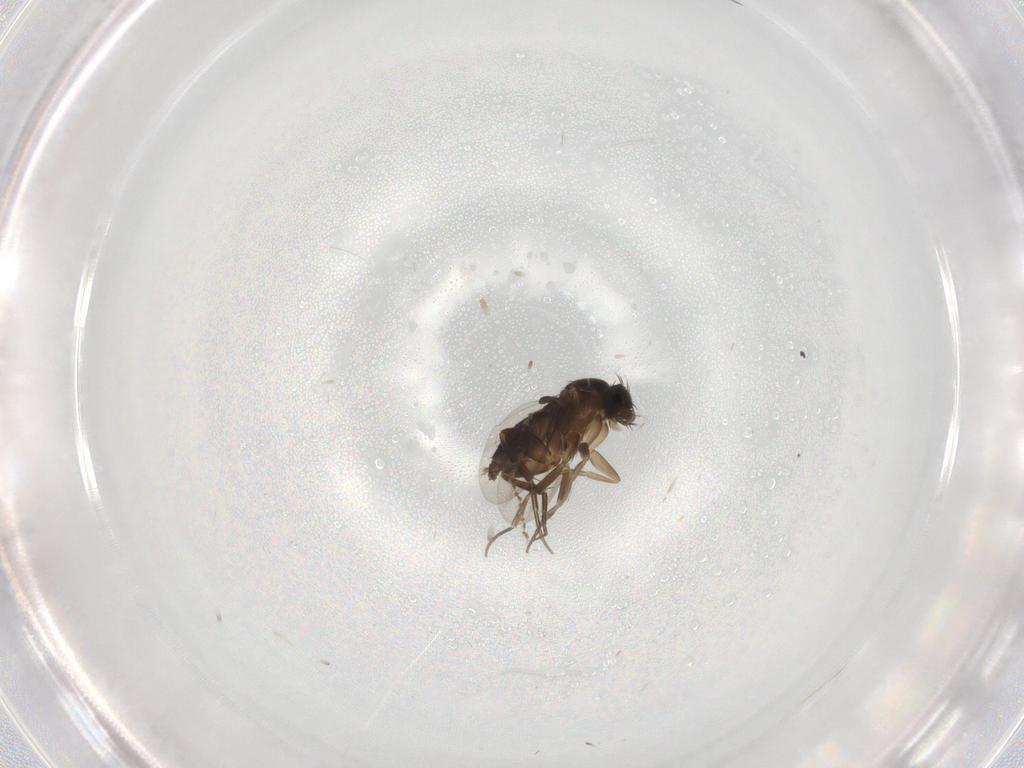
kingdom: Animalia
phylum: Arthropoda
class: Insecta
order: Diptera
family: Phoridae
